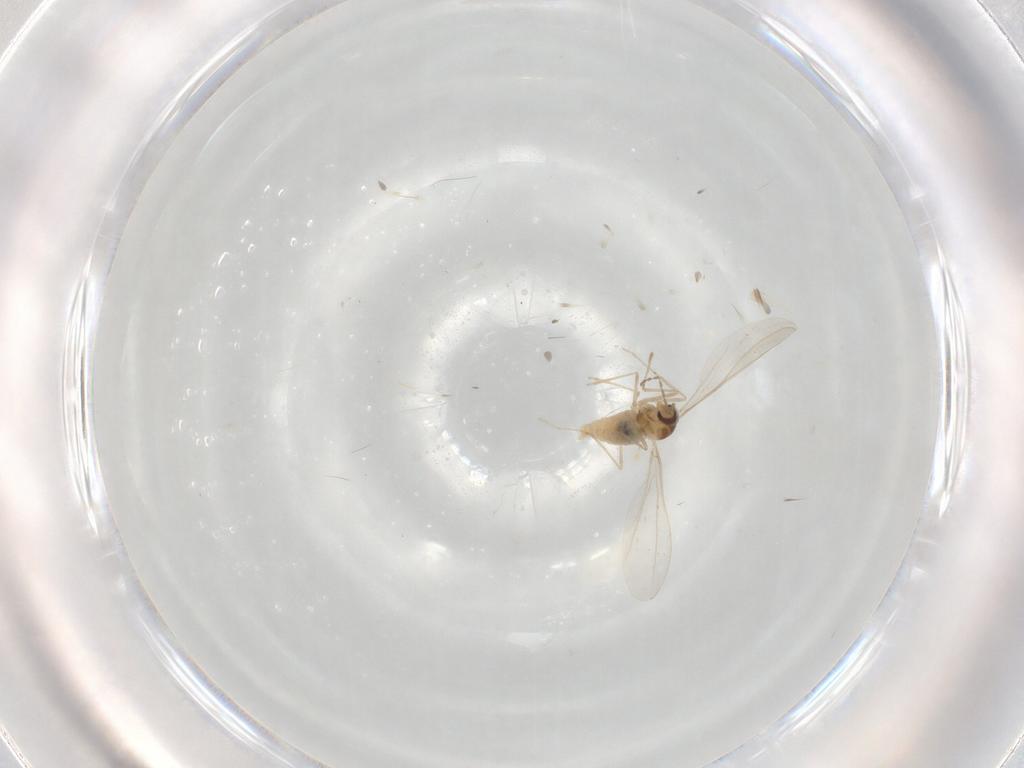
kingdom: Animalia
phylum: Arthropoda
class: Insecta
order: Diptera
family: Cecidomyiidae
